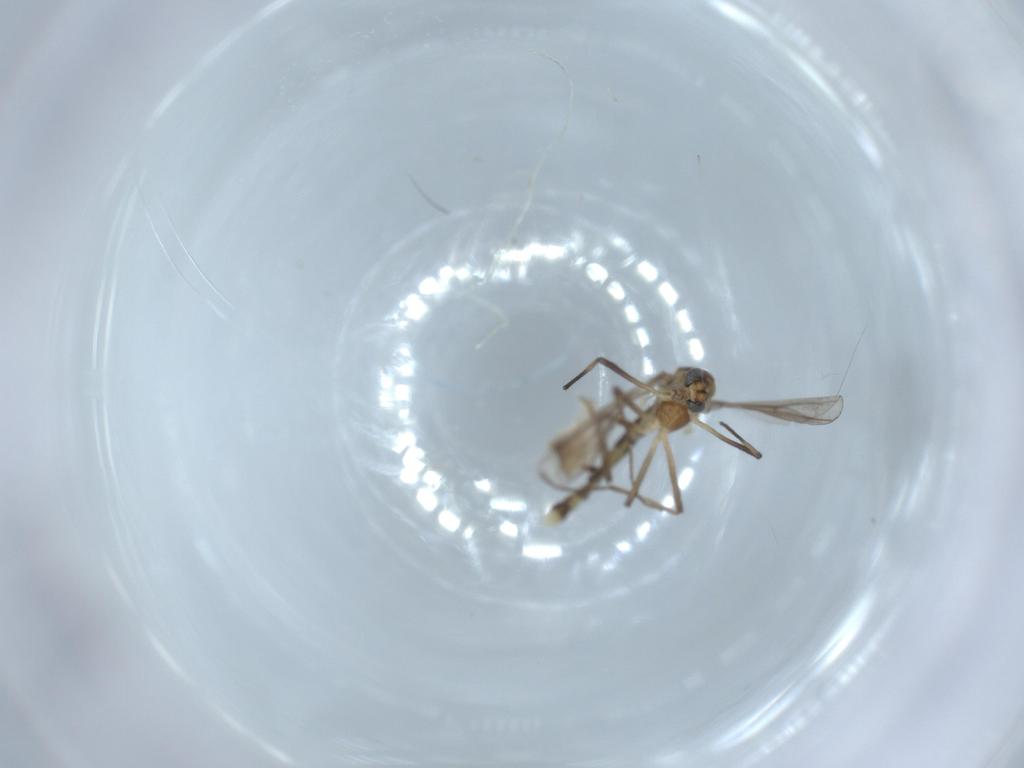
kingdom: Animalia
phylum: Arthropoda
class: Insecta
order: Diptera
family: Chironomidae
